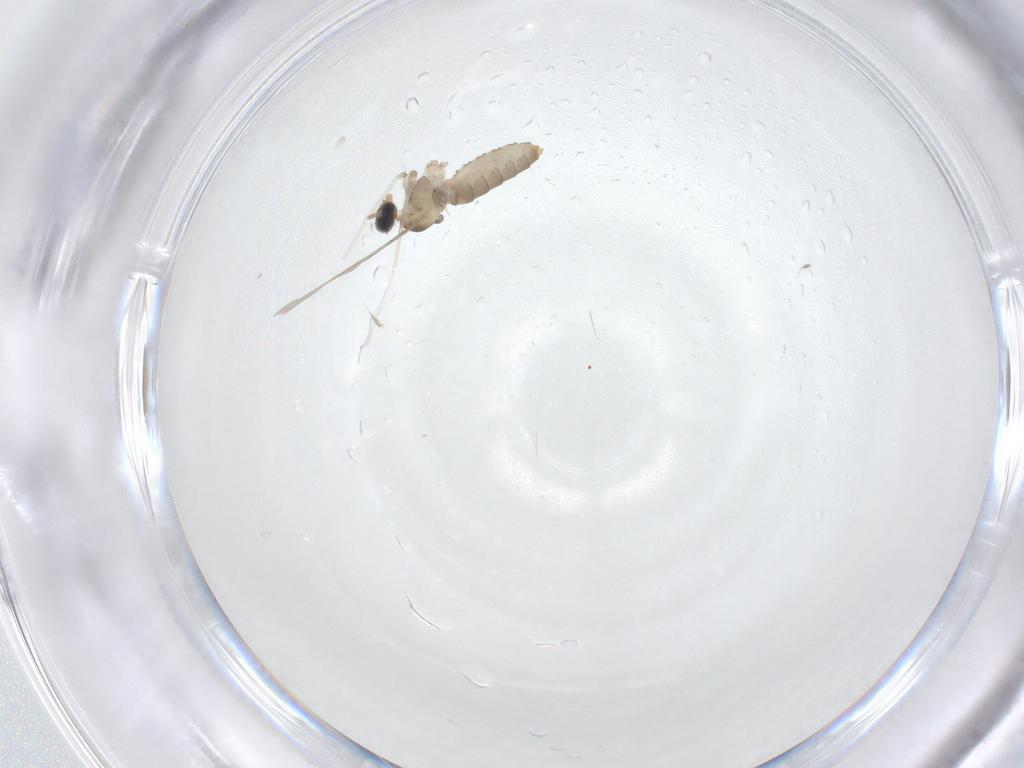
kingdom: Animalia
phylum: Arthropoda
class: Insecta
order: Diptera
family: Cecidomyiidae
